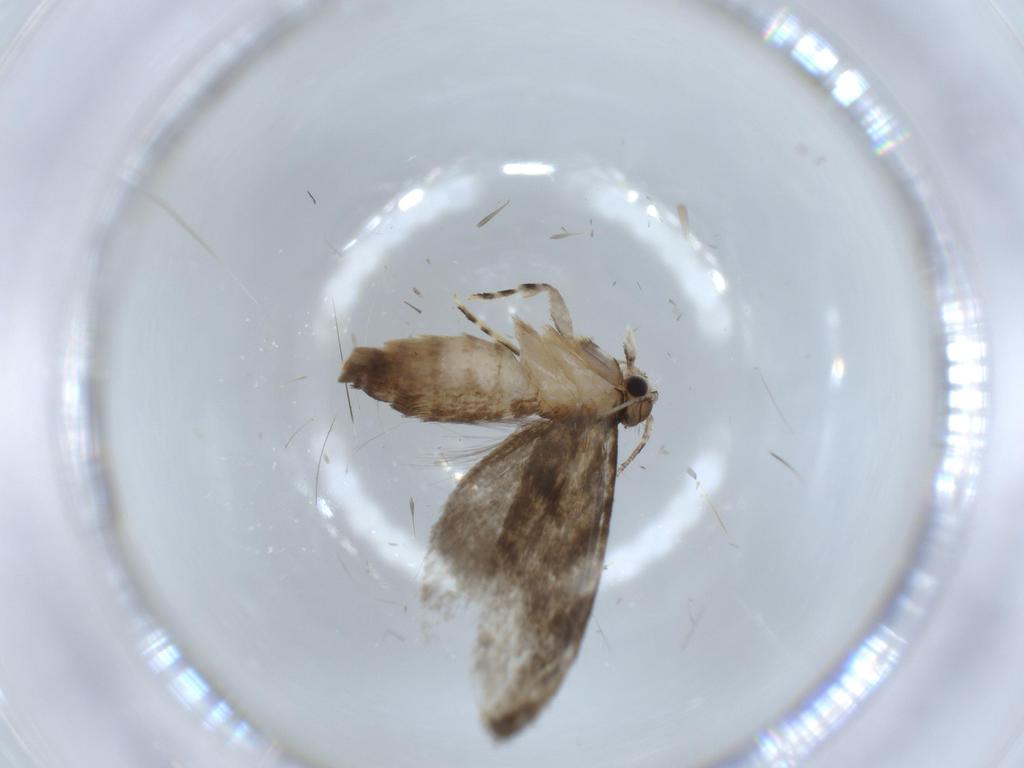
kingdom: Animalia
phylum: Arthropoda
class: Insecta
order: Lepidoptera
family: Tineidae
